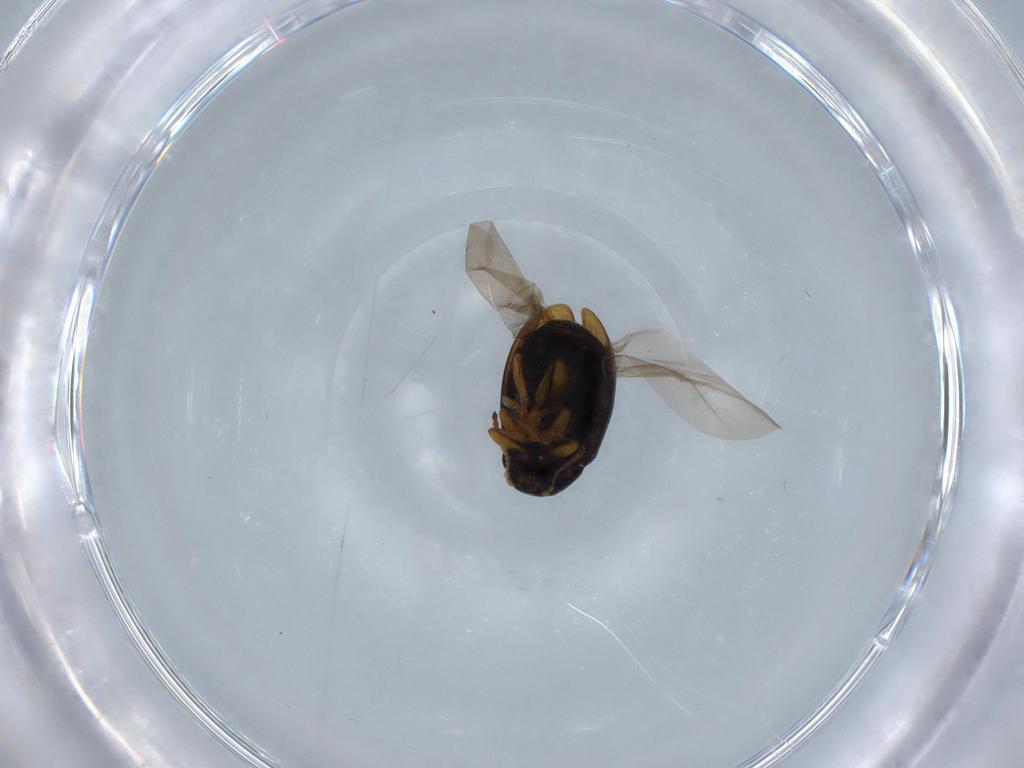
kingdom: Animalia
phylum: Arthropoda
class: Insecta
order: Coleoptera
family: Chrysomelidae
